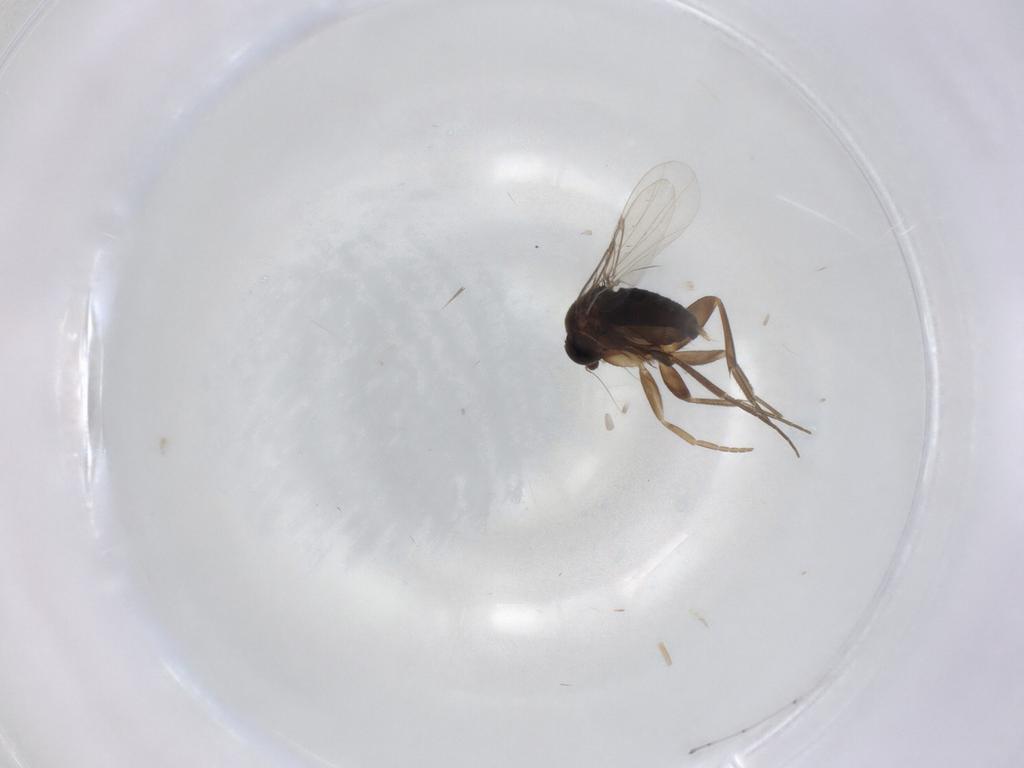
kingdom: Animalia
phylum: Arthropoda
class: Insecta
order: Diptera
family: Phoridae
